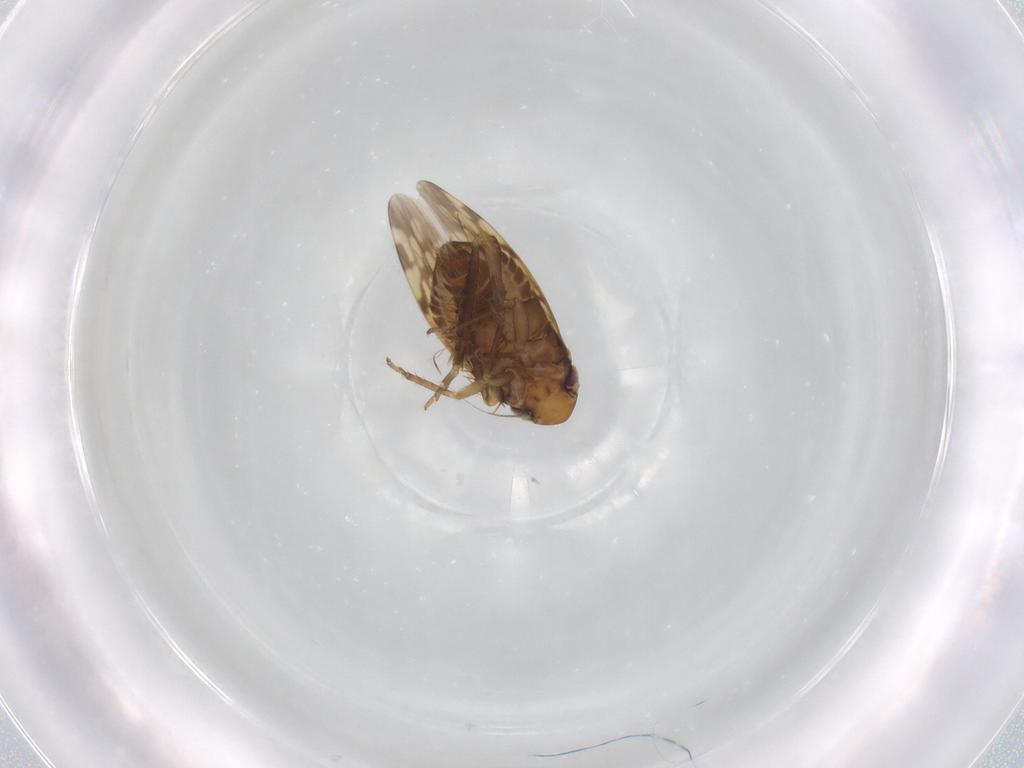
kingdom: Animalia
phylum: Arthropoda
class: Insecta
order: Hemiptera
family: Cicadellidae
